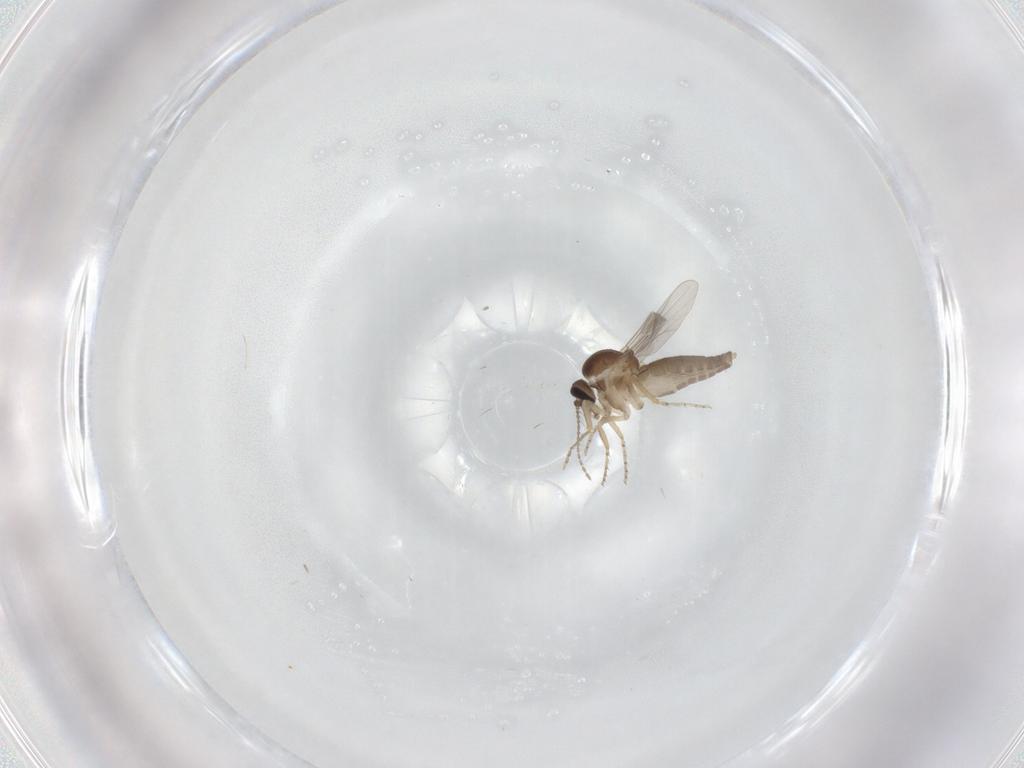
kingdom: Animalia
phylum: Arthropoda
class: Insecta
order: Diptera
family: Ceratopogonidae
